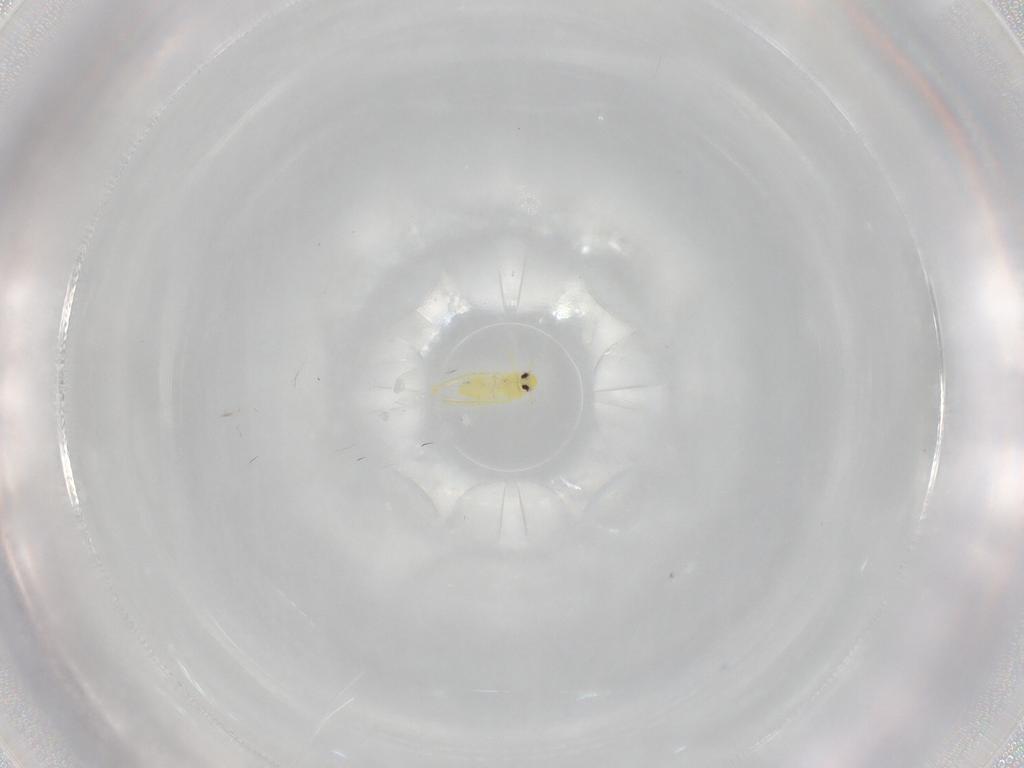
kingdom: Animalia
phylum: Arthropoda
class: Insecta
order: Hemiptera
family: Aleyrodidae
